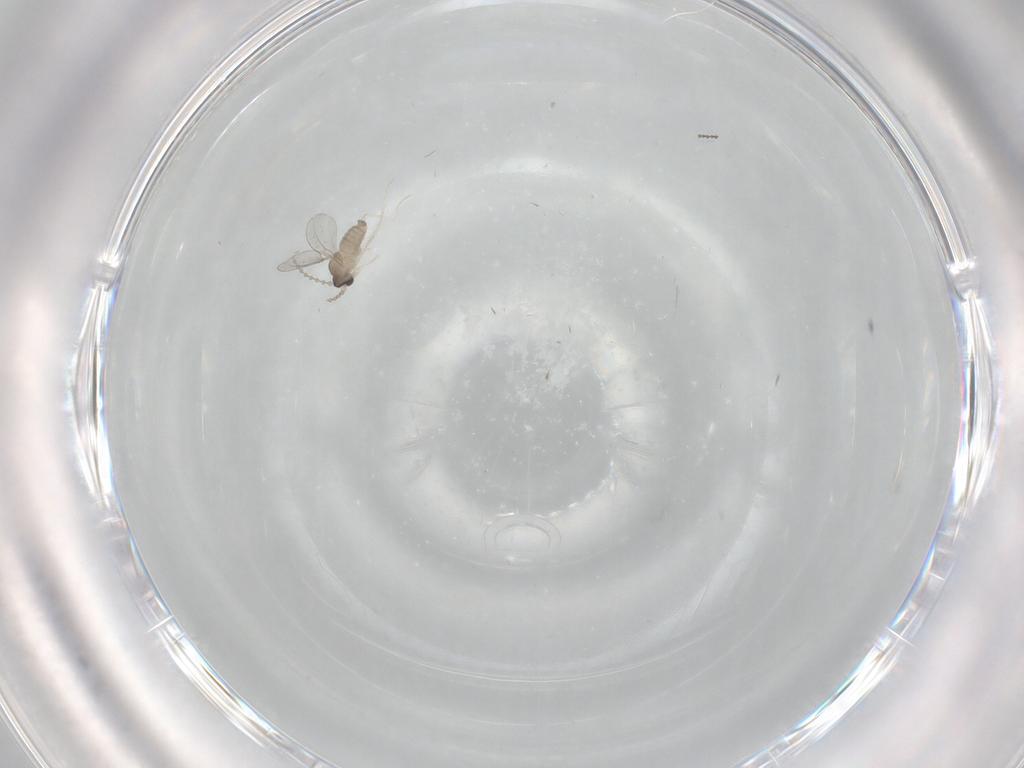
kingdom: Animalia
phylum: Arthropoda
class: Insecta
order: Diptera
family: Cecidomyiidae
